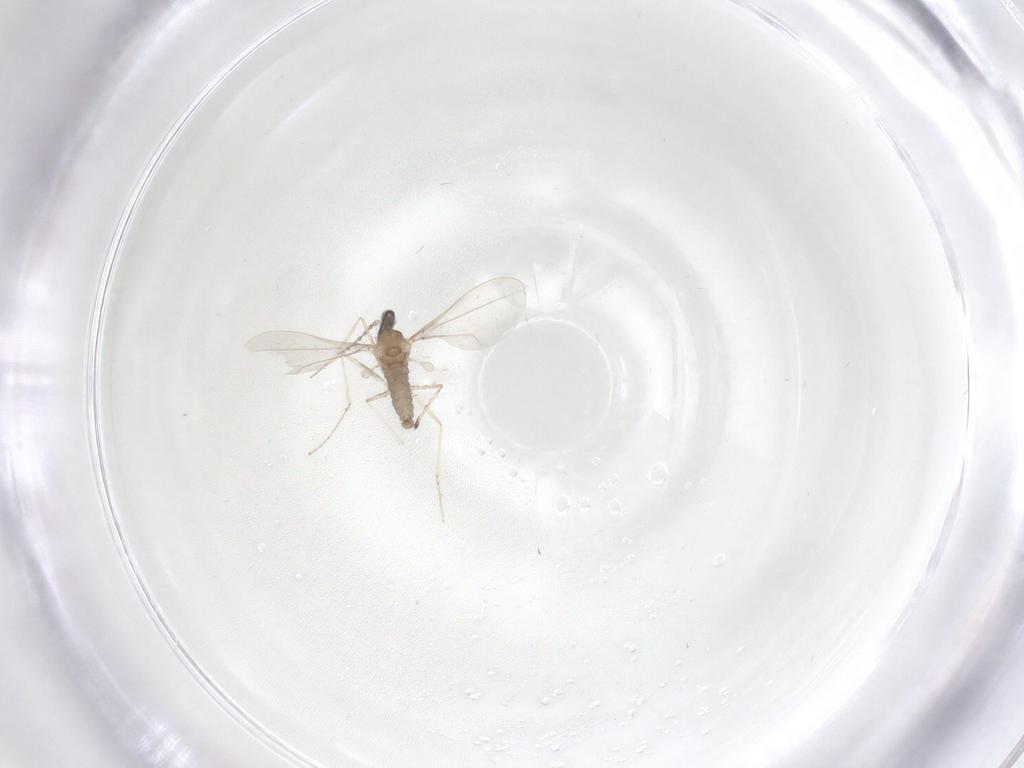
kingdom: Animalia
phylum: Arthropoda
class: Insecta
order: Diptera
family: Cecidomyiidae
